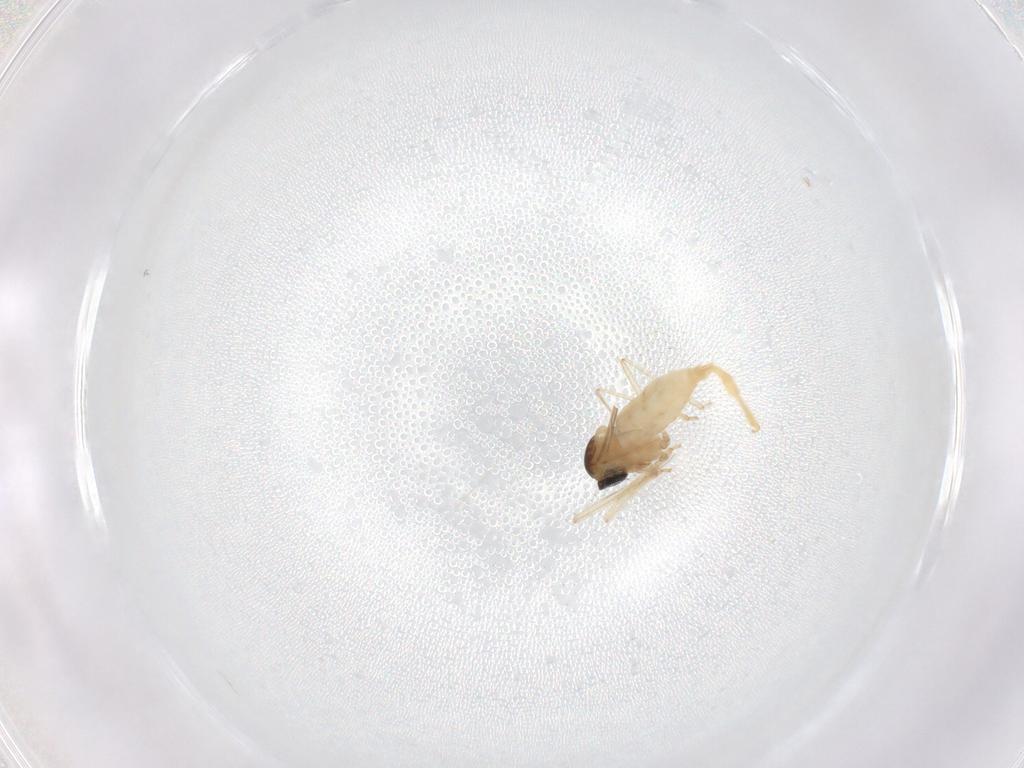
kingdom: Animalia
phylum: Arthropoda
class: Insecta
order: Diptera
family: Cecidomyiidae
